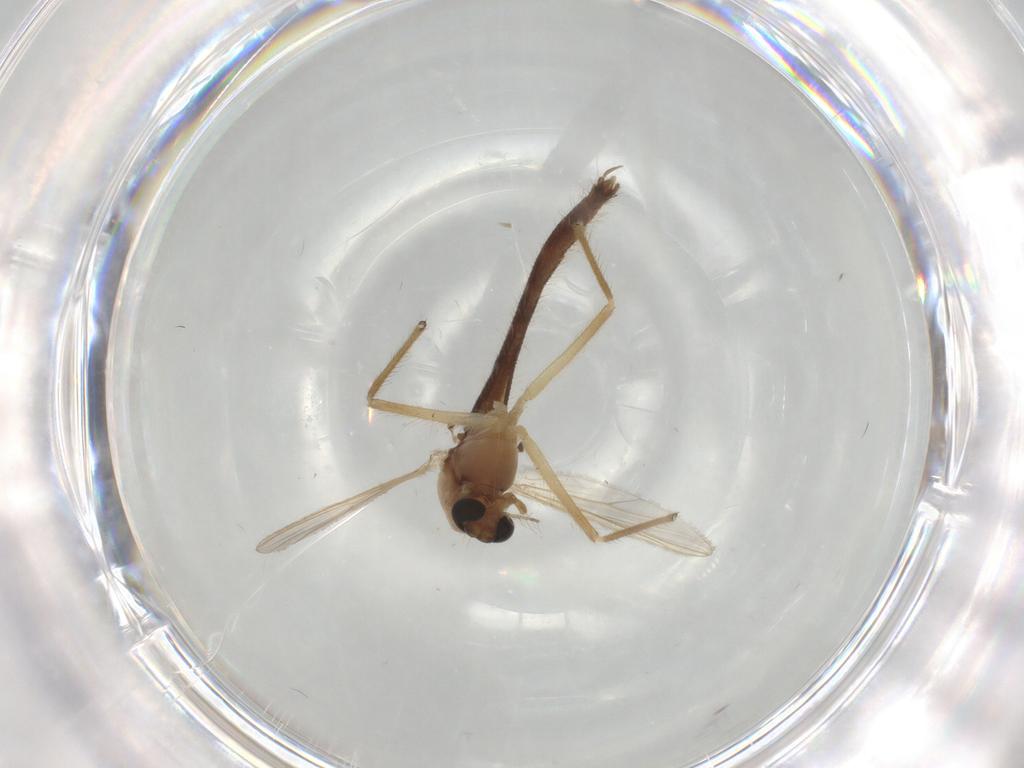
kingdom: Animalia
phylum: Arthropoda
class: Insecta
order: Diptera
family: Chironomidae
